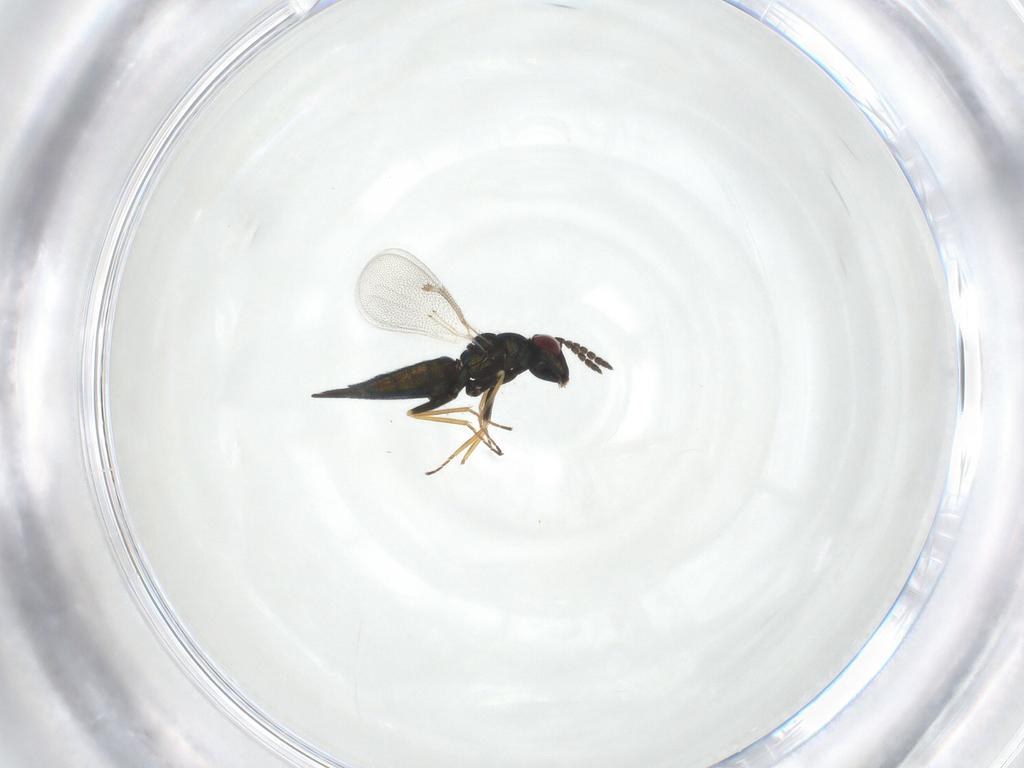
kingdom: Animalia
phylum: Arthropoda
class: Insecta
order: Hymenoptera
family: Eulophidae
